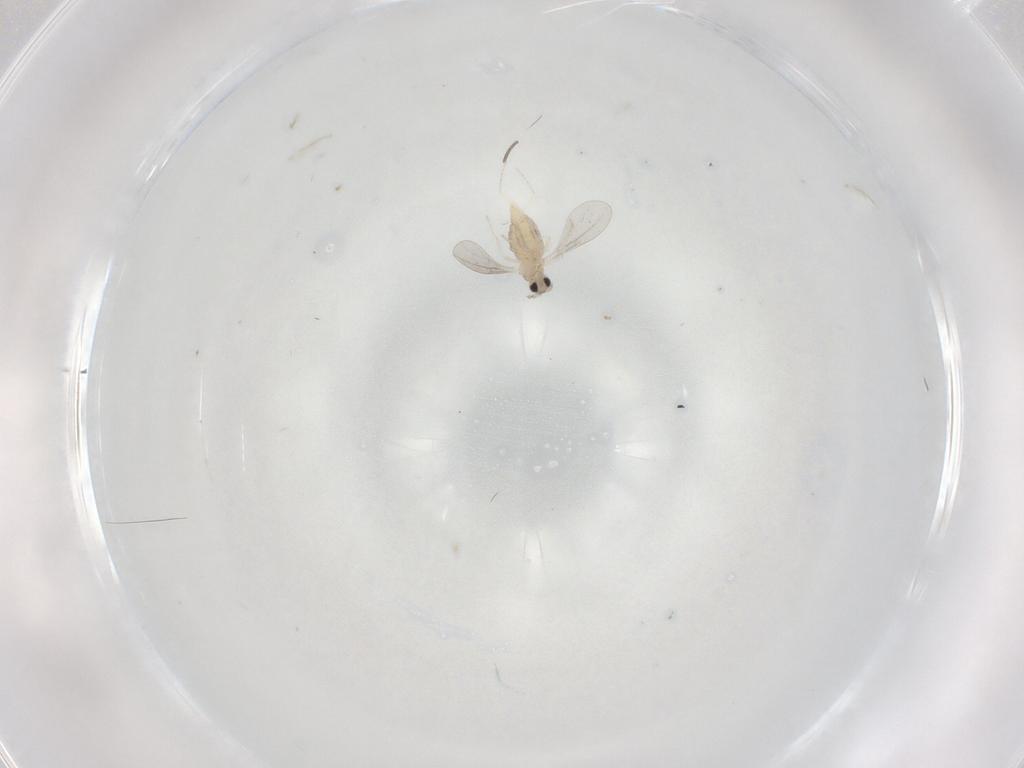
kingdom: Animalia
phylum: Arthropoda
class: Insecta
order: Diptera
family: Cecidomyiidae
